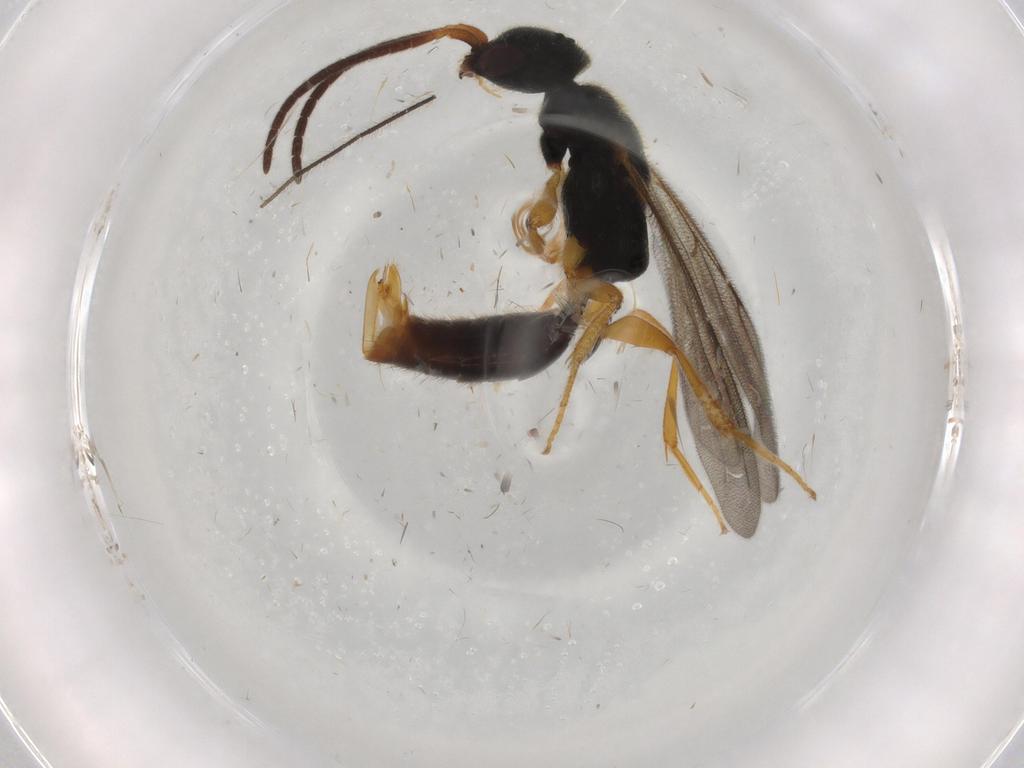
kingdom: Animalia
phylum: Arthropoda
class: Insecta
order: Hymenoptera
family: Bethylidae
